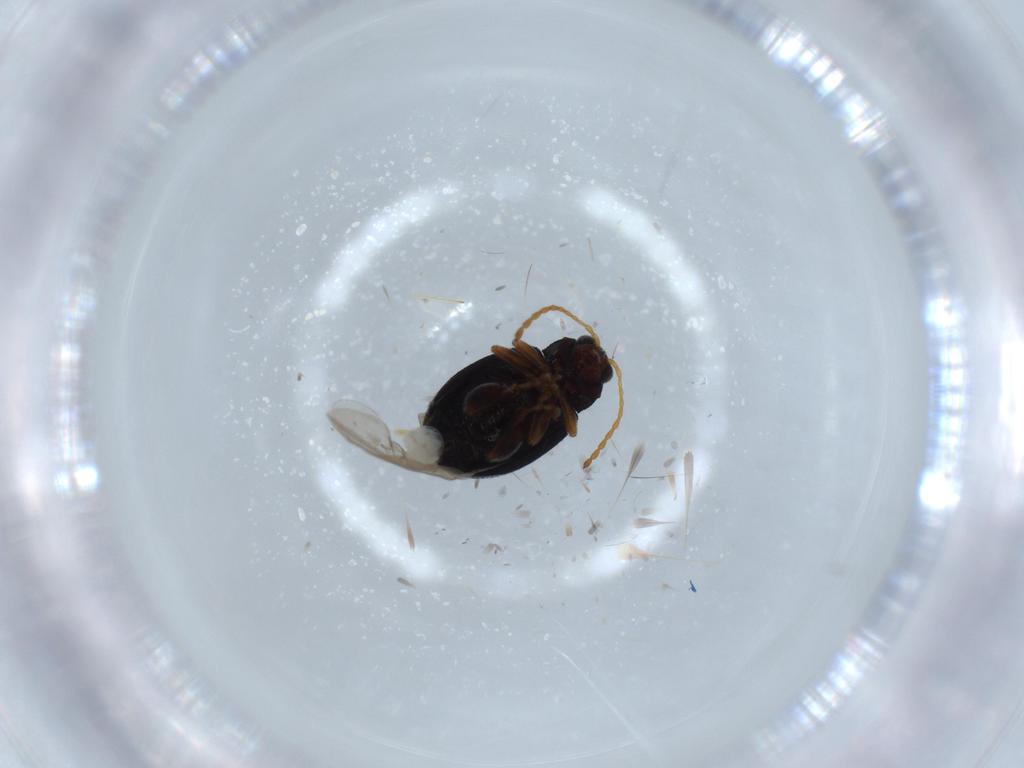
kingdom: Animalia
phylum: Arthropoda
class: Insecta
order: Coleoptera
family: Chrysomelidae
